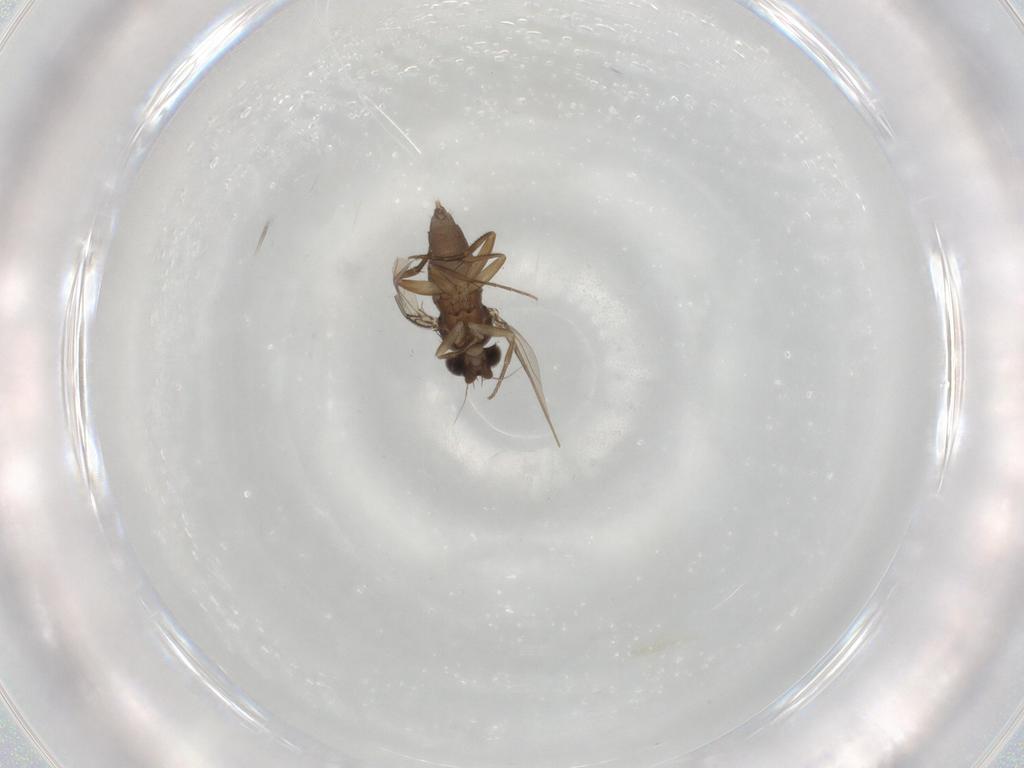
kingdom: Animalia
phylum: Arthropoda
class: Insecta
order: Diptera
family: Phoridae
